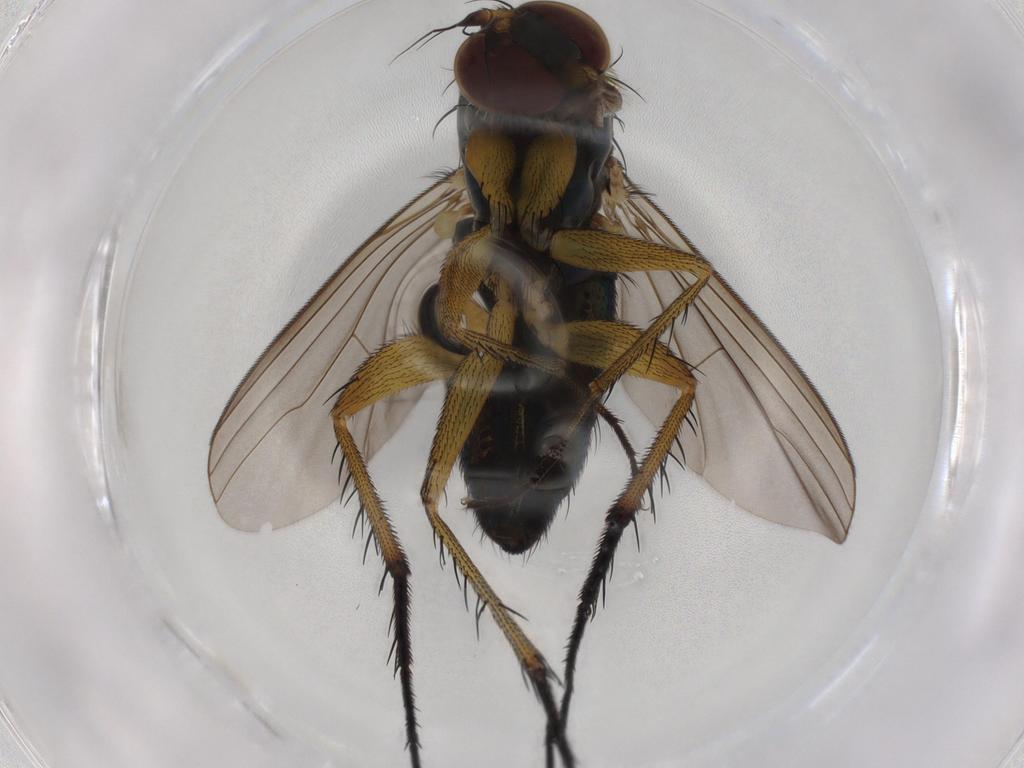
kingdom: Animalia
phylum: Arthropoda
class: Insecta
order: Diptera
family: Dolichopodidae
